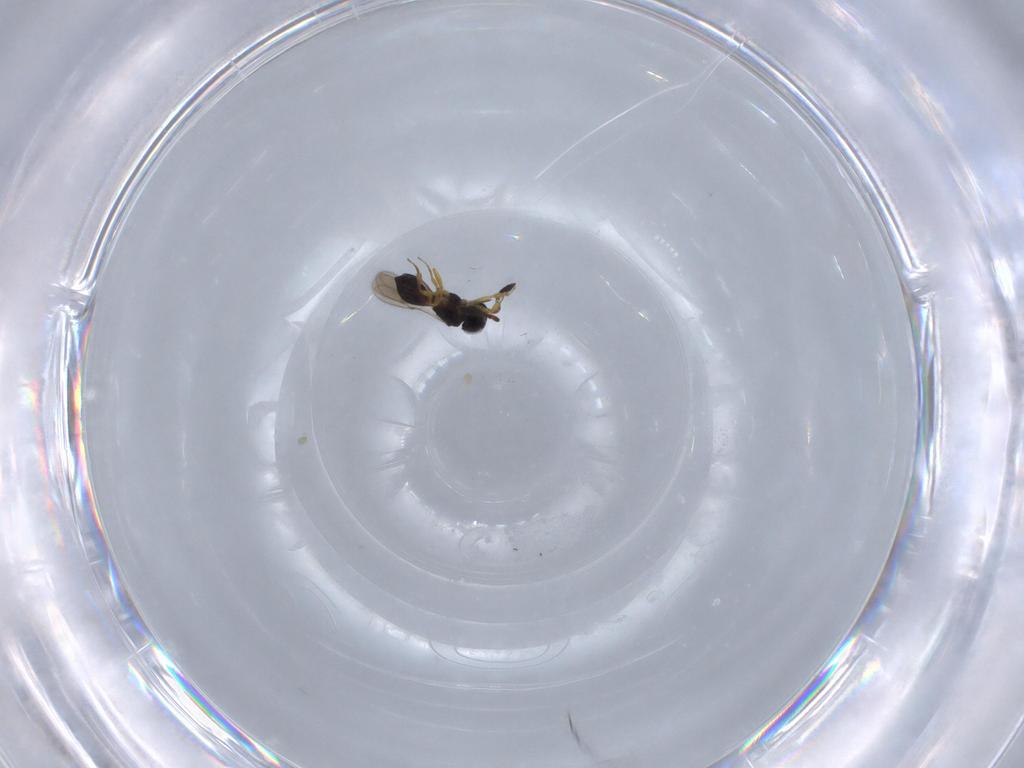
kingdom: Animalia
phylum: Arthropoda
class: Insecta
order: Hymenoptera
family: Scelionidae
